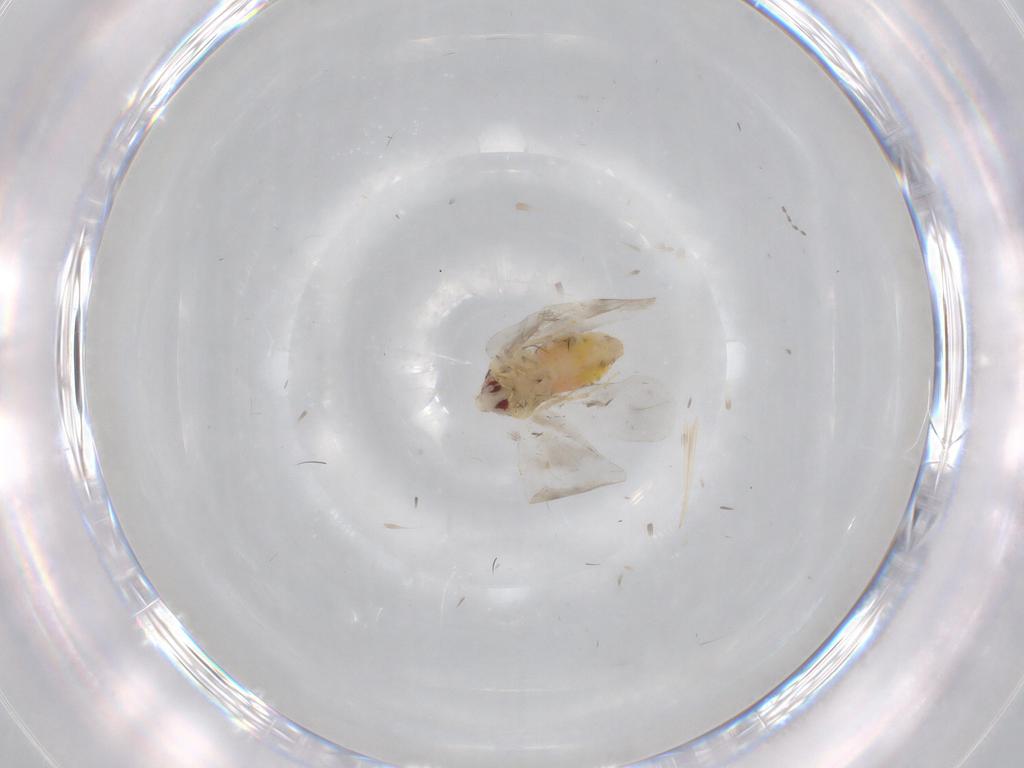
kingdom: Animalia
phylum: Arthropoda
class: Insecta
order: Hemiptera
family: Aleyrodidae
